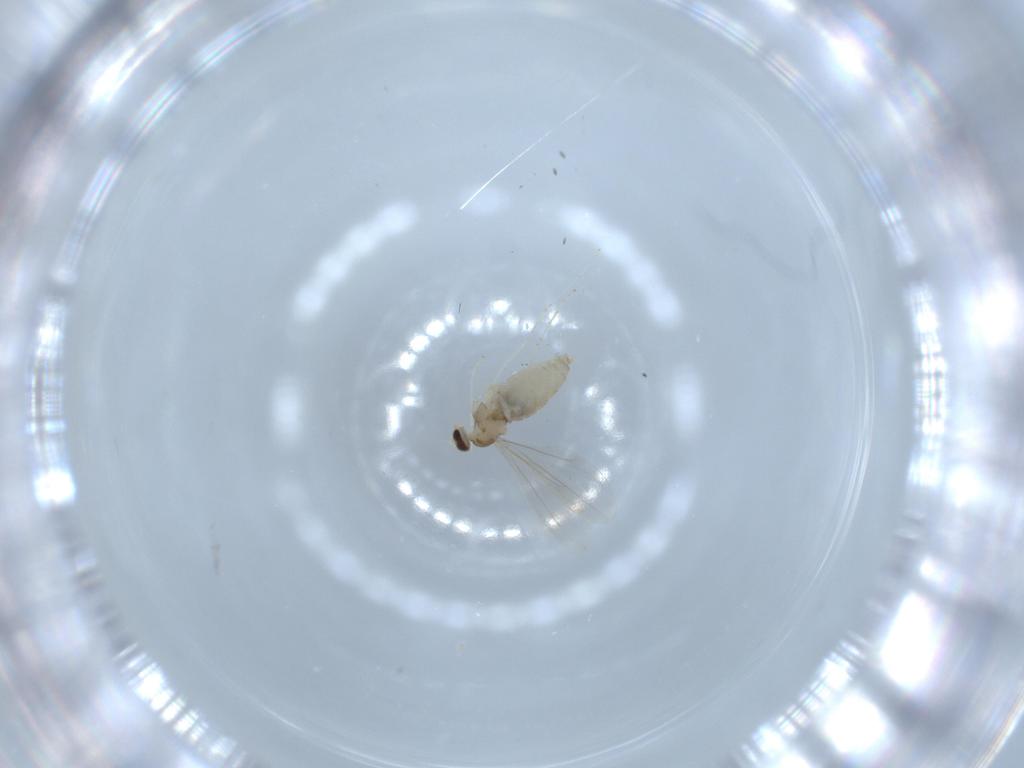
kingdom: Animalia
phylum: Arthropoda
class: Insecta
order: Diptera
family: Phoridae
